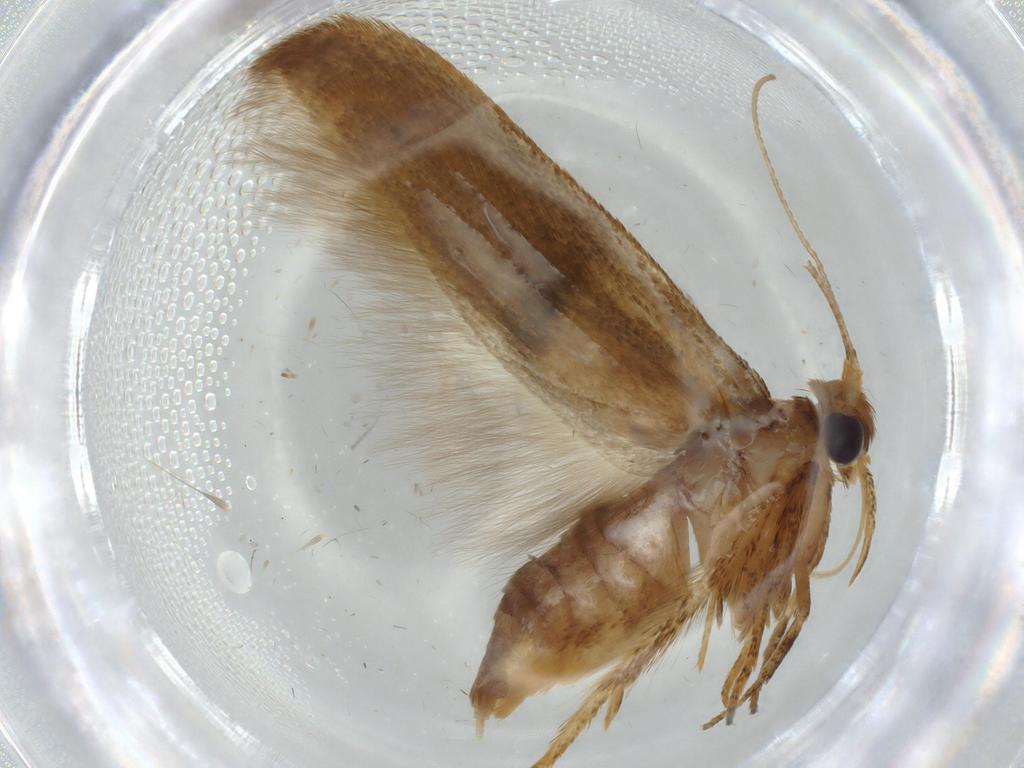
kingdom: Animalia
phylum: Arthropoda
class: Insecta
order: Lepidoptera
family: Coleophoridae
